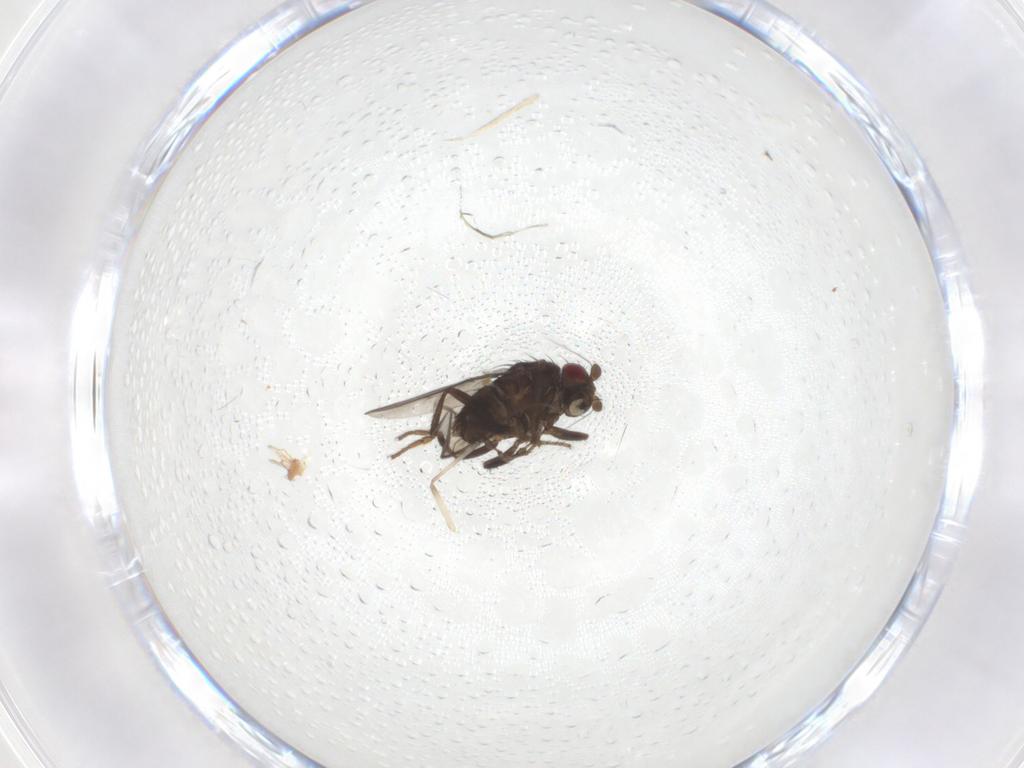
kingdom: Animalia
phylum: Arthropoda
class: Insecta
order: Diptera
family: Cecidomyiidae
